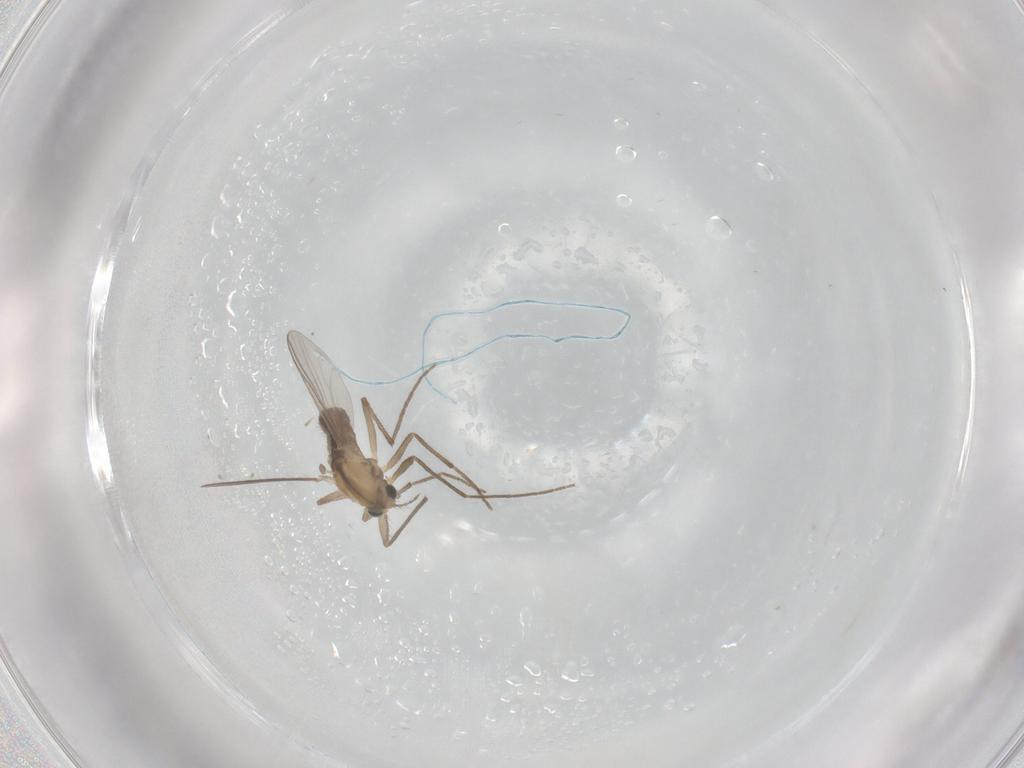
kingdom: Animalia
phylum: Arthropoda
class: Insecta
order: Diptera
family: Chironomidae
